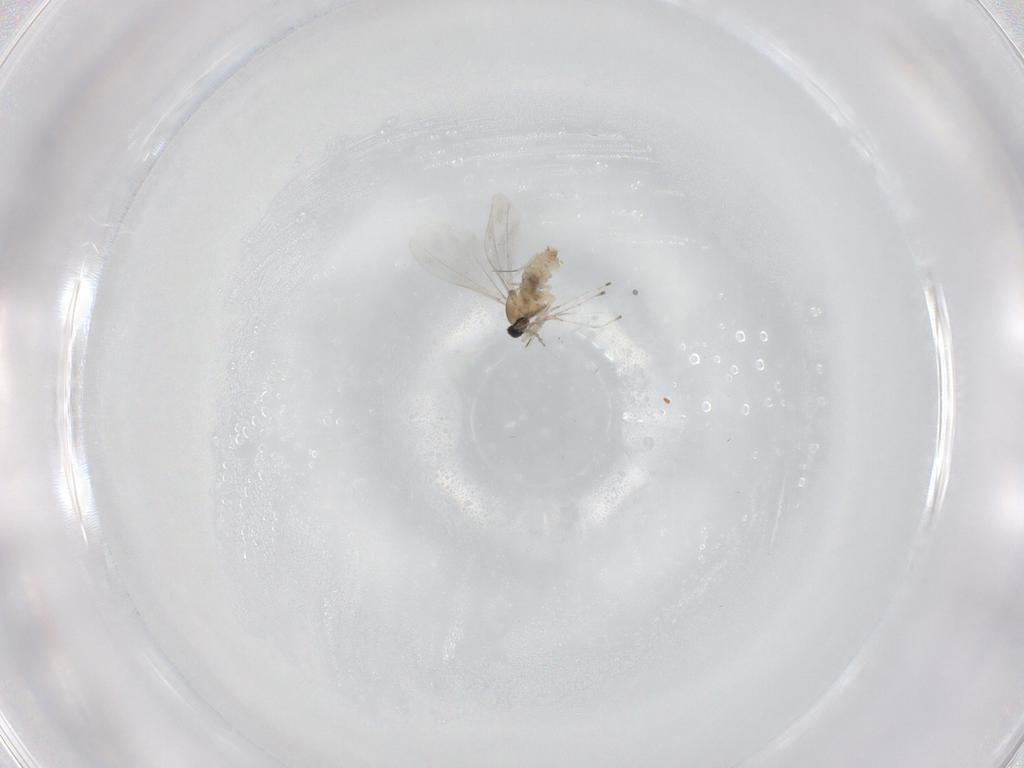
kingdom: Animalia
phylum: Arthropoda
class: Insecta
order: Diptera
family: Cecidomyiidae
